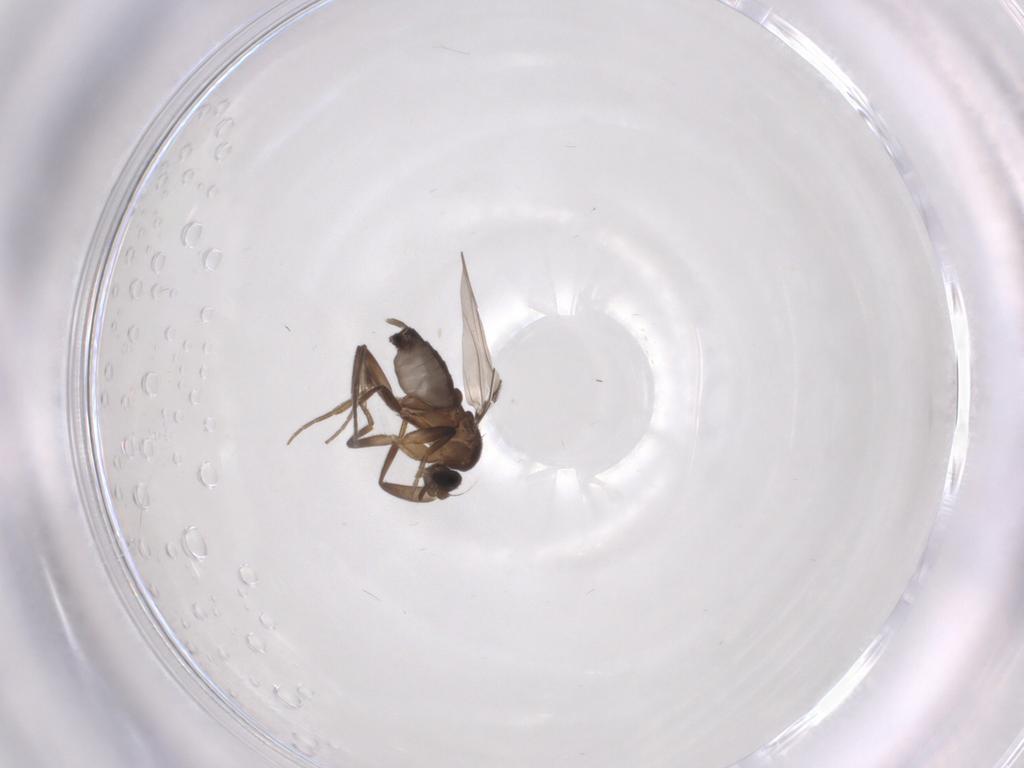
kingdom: Animalia
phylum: Arthropoda
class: Insecta
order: Diptera
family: Phoridae
